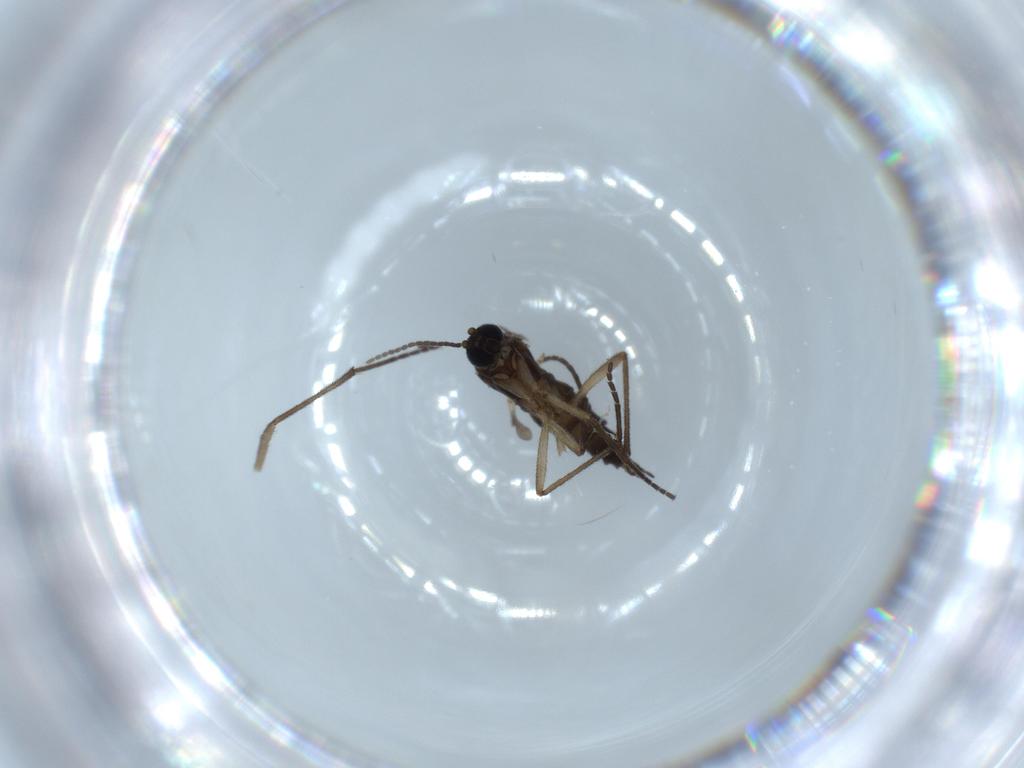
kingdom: Animalia
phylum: Arthropoda
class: Insecta
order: Diptera
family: Sciaridae
